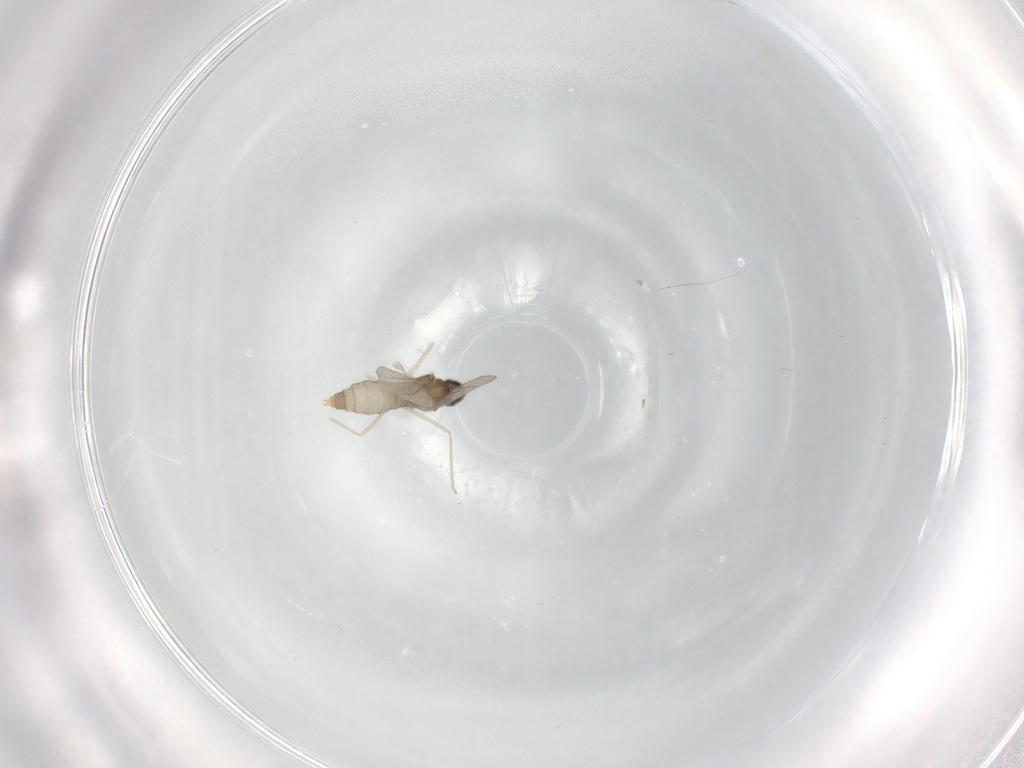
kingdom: Animalia
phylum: Arthropoda
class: Insecta
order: Diptera
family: Cecidomyiidae
